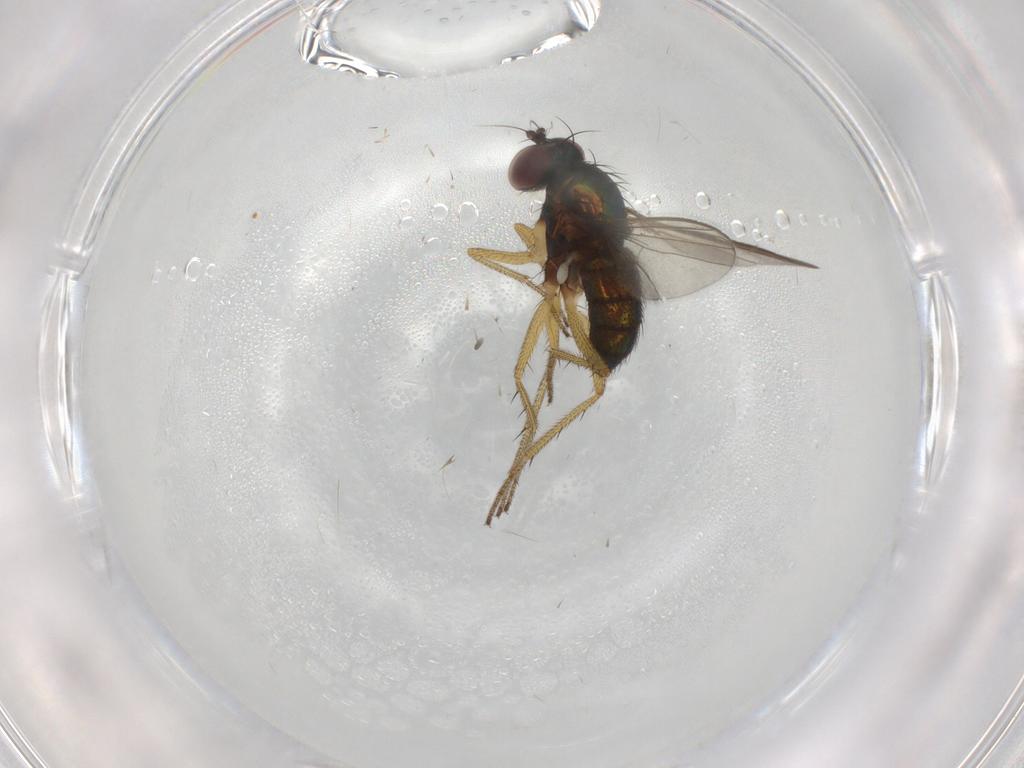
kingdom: Animalia
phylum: Arthropoda
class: Insecta
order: Diptera
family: Dolichopodidae
